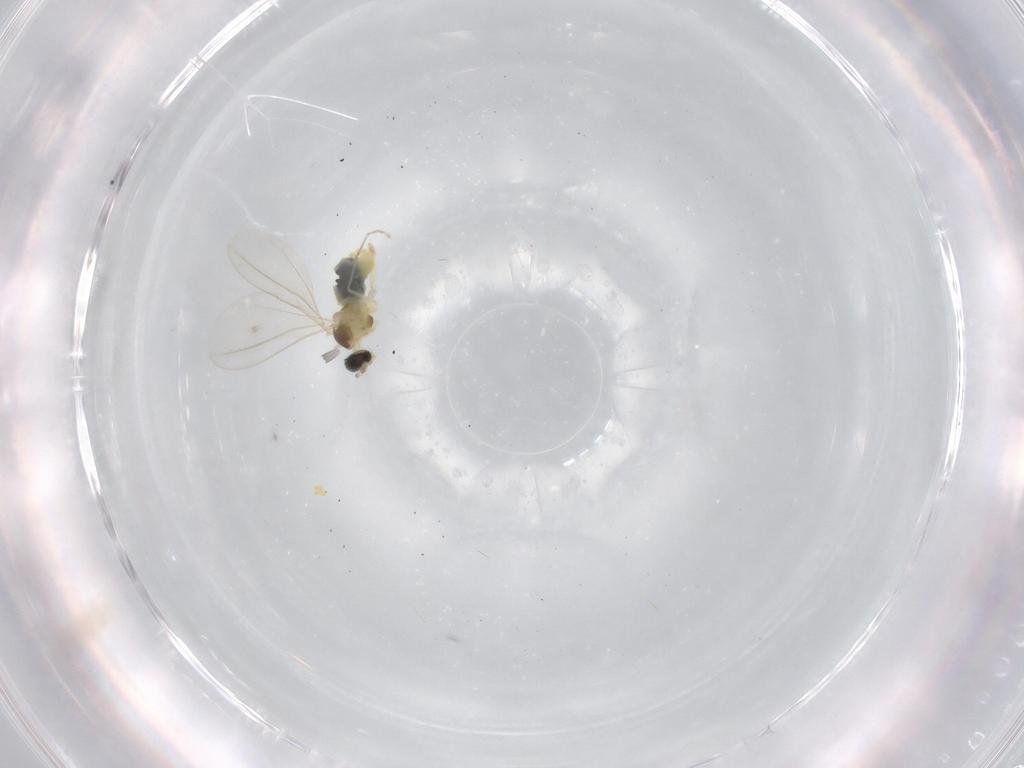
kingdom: Animalia
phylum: Arthropoda
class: Insecta
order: Diptera
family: Cecidomyiidae
